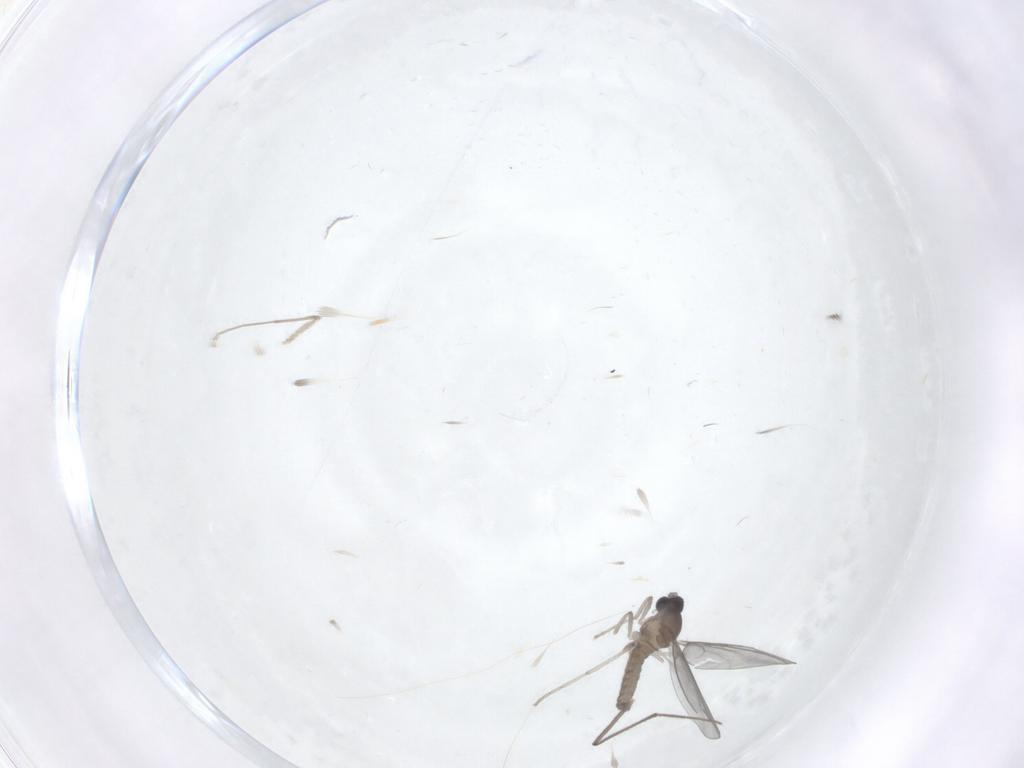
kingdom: Animalia
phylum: Arthropoda
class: Insecta
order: Diptera
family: Cecidomyiidae
